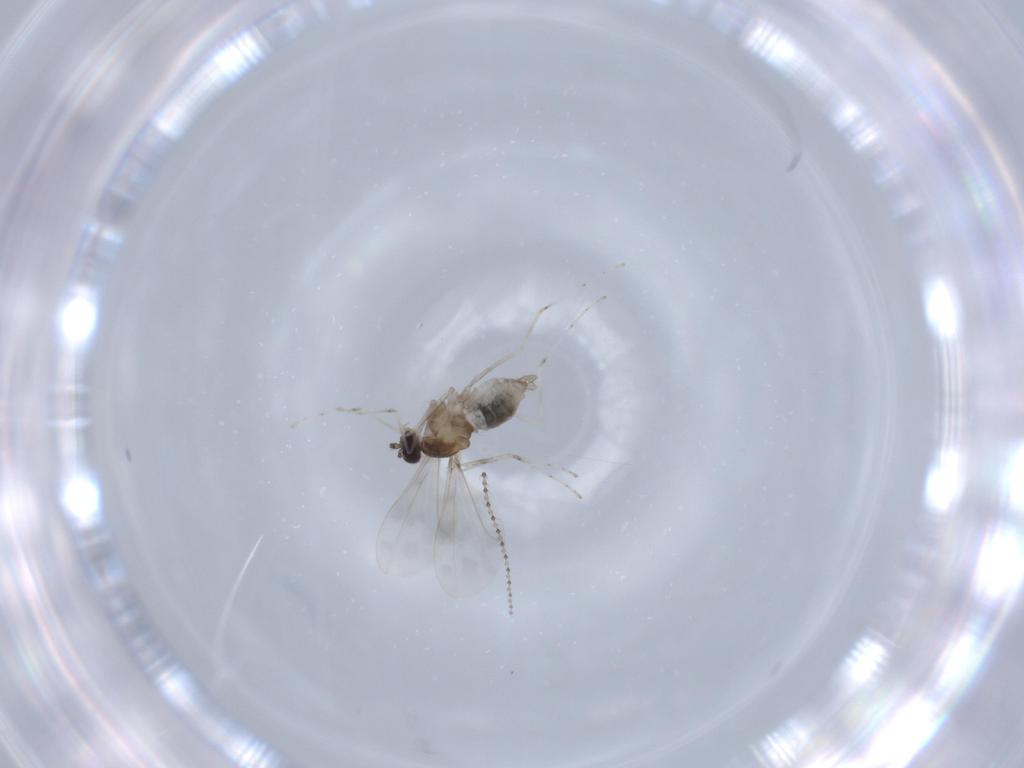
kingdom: Animalia
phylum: Arthropoda
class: Insecta
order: Diptera
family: Cecidomyiidae
